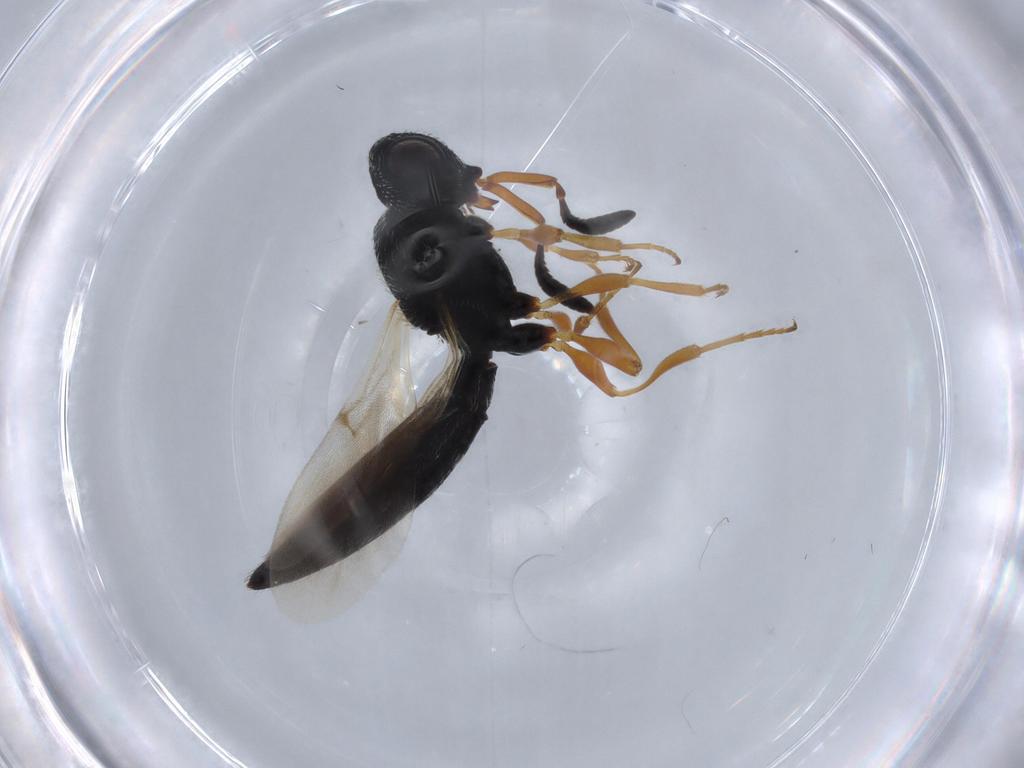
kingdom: Animalia
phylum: Arthropoda
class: Insecta
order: Hymenoptera
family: Scelionidae
